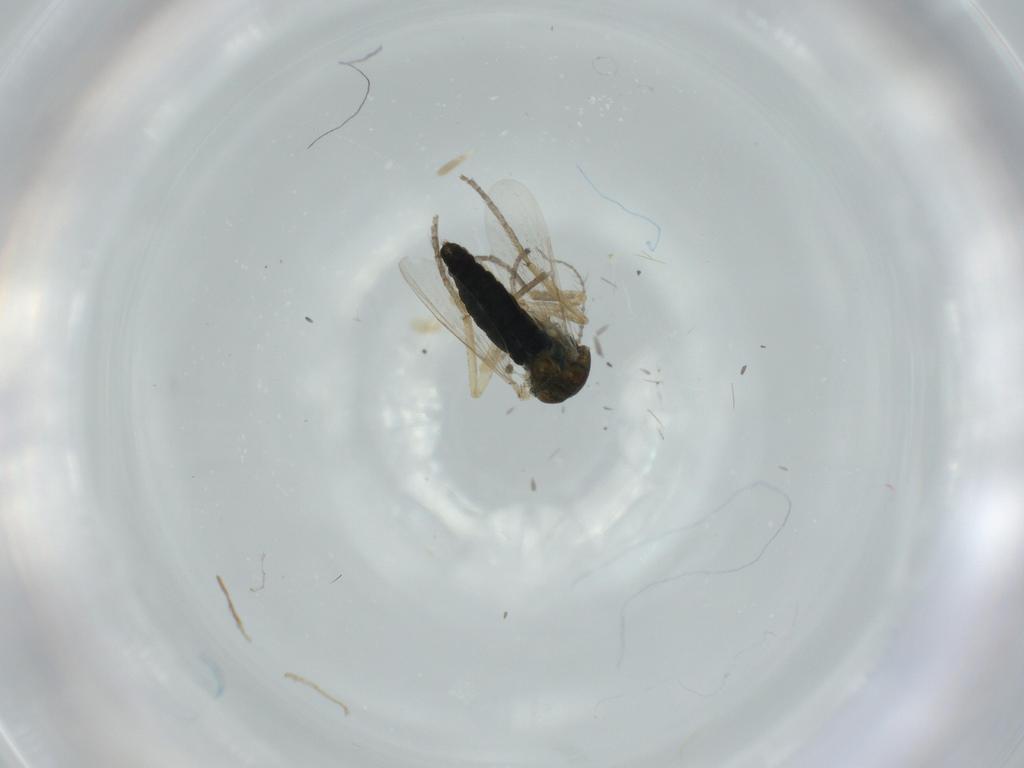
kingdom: Animalia
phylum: Arthropoda
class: Insecta
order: Diptera
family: Ceratopogonidae
